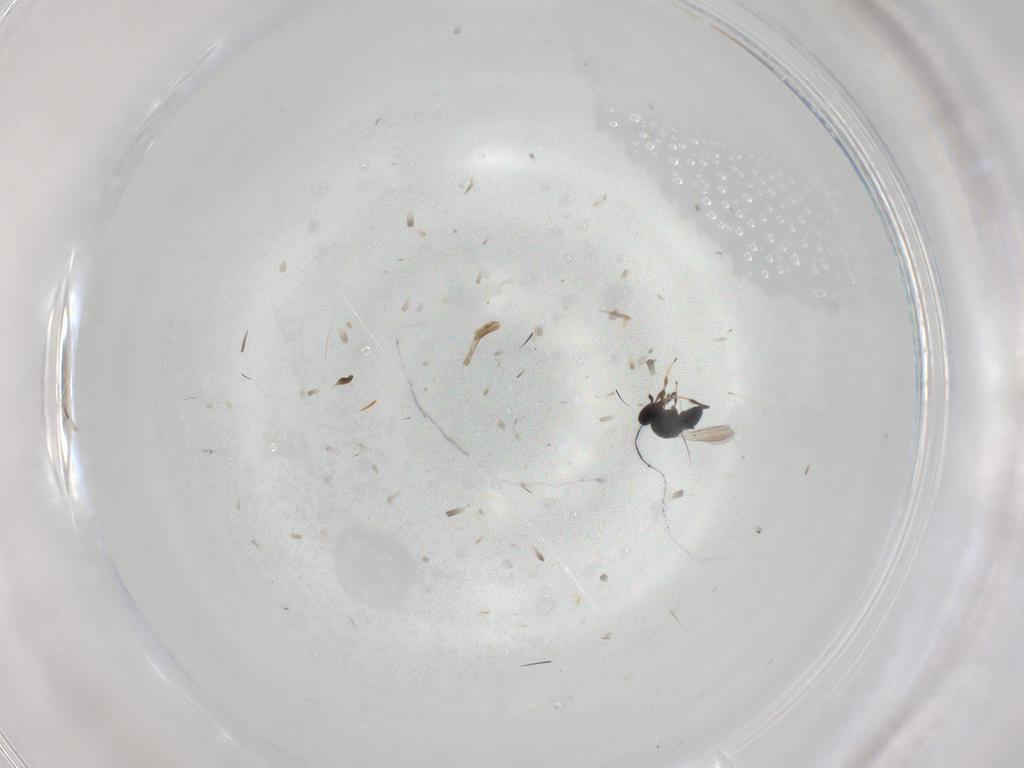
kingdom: Animalia
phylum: Arthropoda
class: Insecta
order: Hymenoptera
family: Platygastridae
